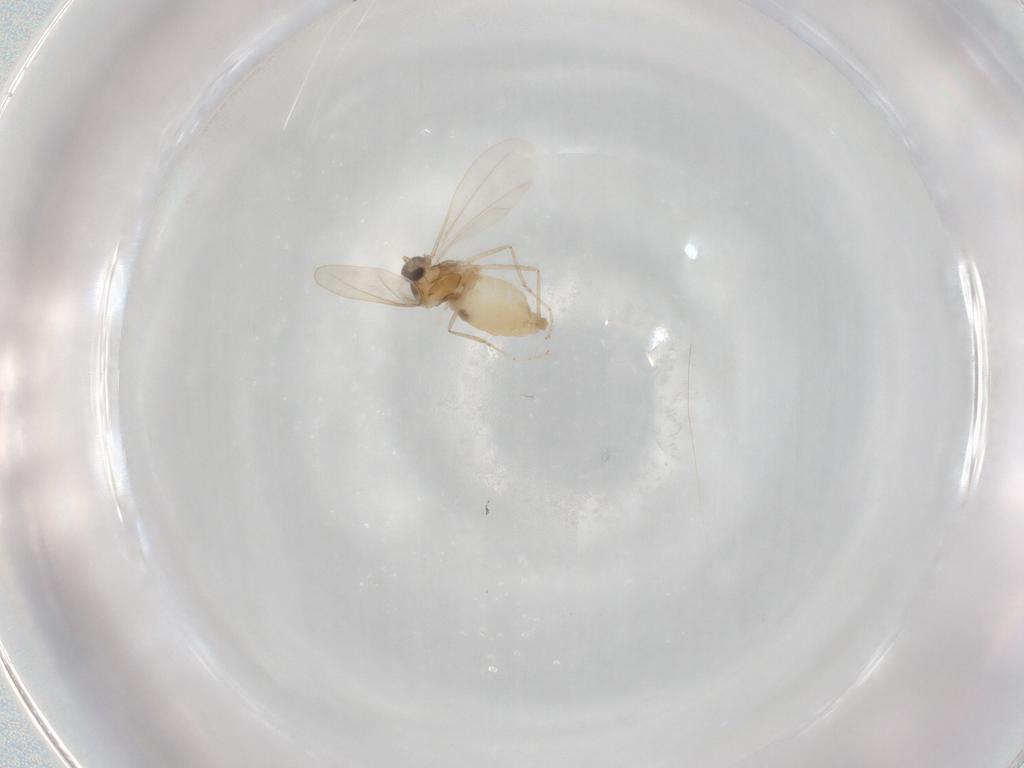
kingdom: Animalia
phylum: Arthropoda
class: Insecta
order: Diptera
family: Cecidomyiidae
